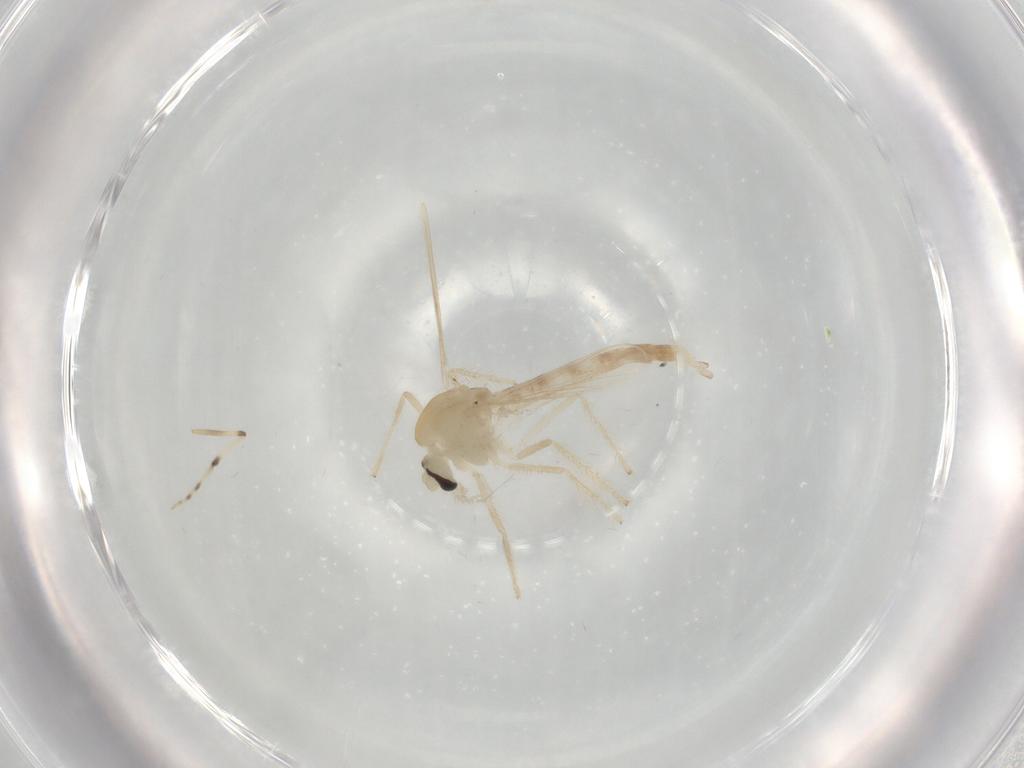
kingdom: Animalia
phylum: Arthropoda
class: Insecta
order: Diptera
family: Chironomidae
